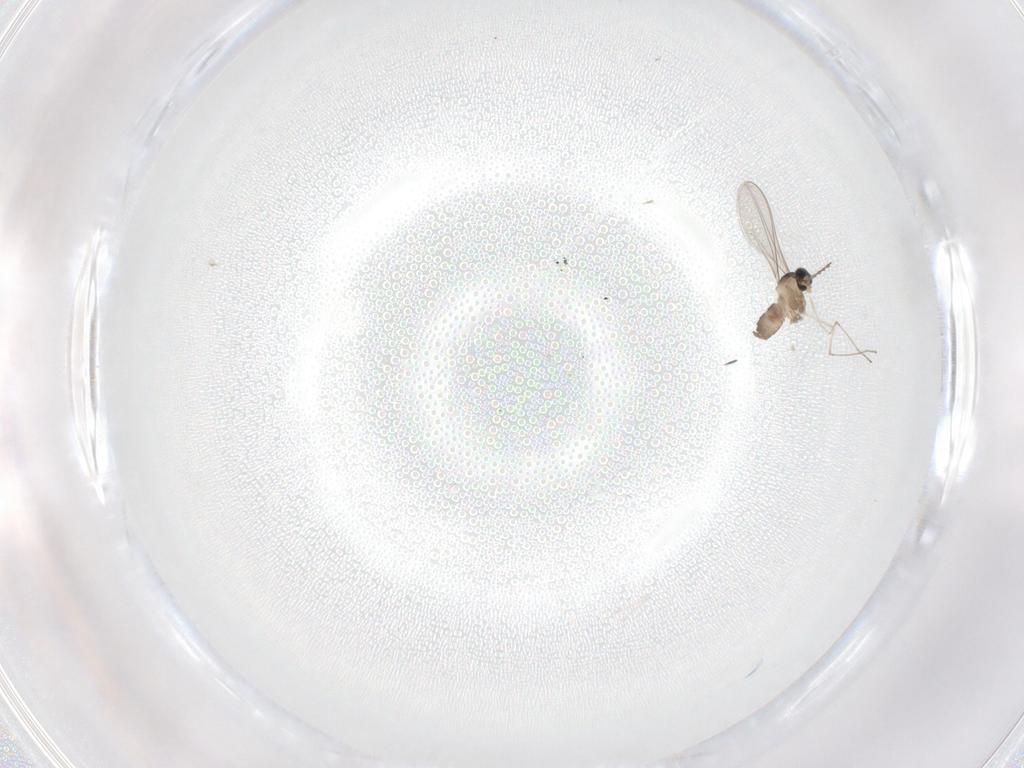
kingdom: Animalia
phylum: Arthropoda
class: Insecta
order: Diptera
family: Cecidomyiidae
